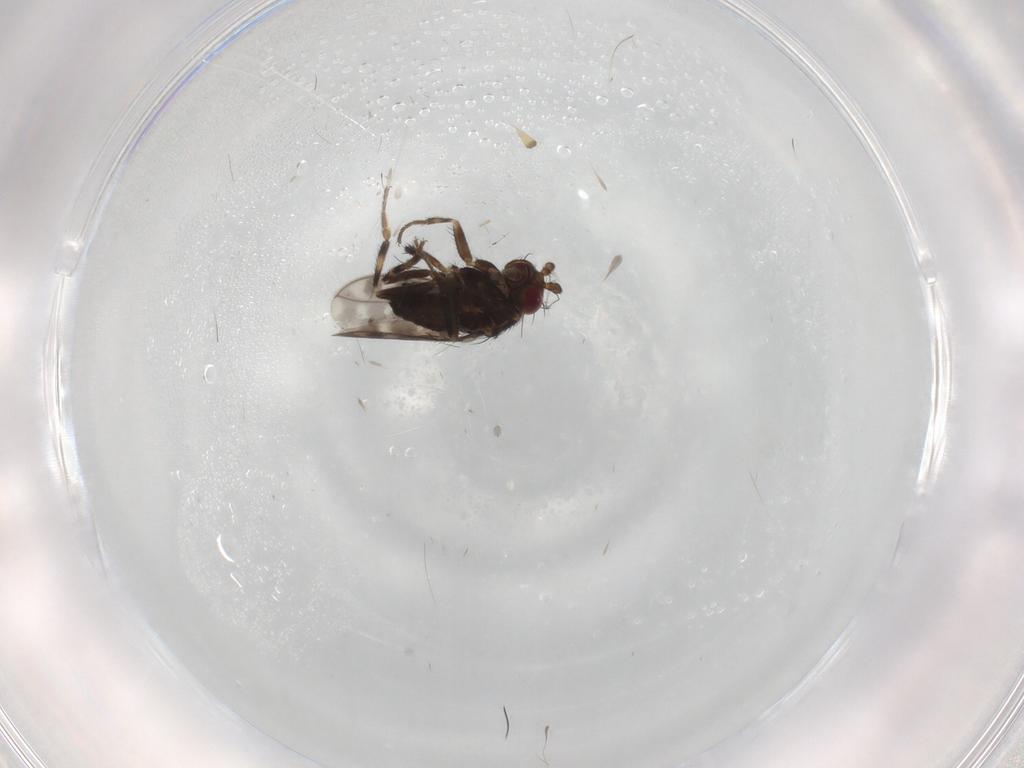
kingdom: Animalia
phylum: Arthropoda
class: Insecta
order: Diptera
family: Sphaeroceridae
